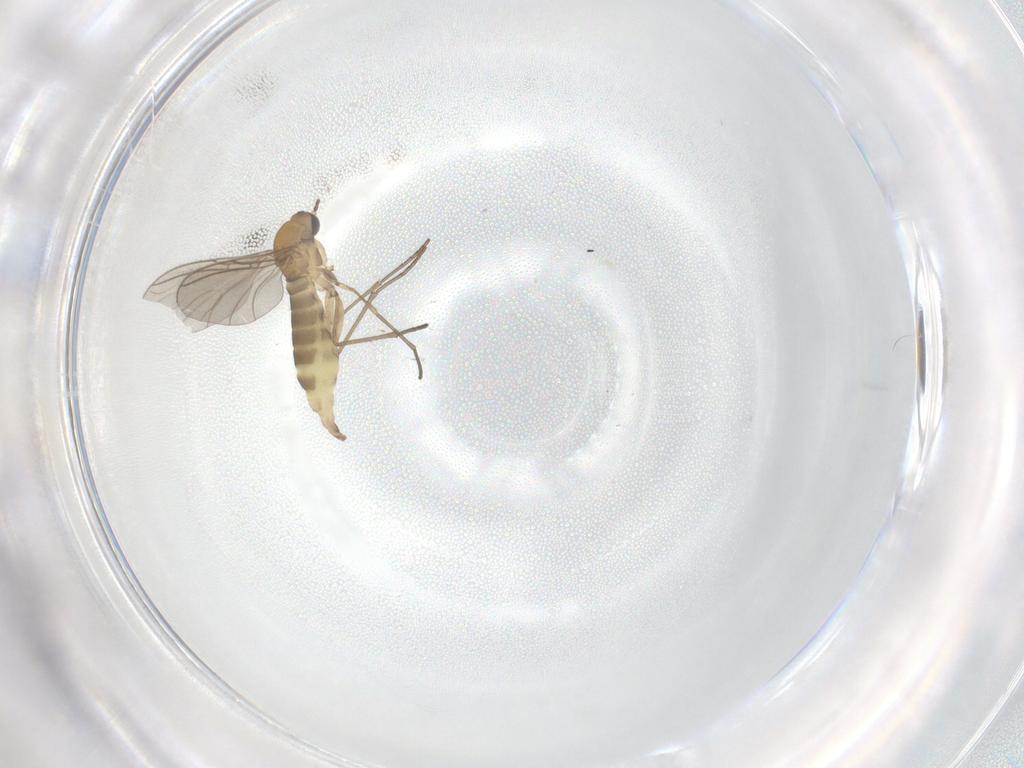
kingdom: Animalia
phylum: Arthropoda
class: Insecta
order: Diptera
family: Sciaridae
